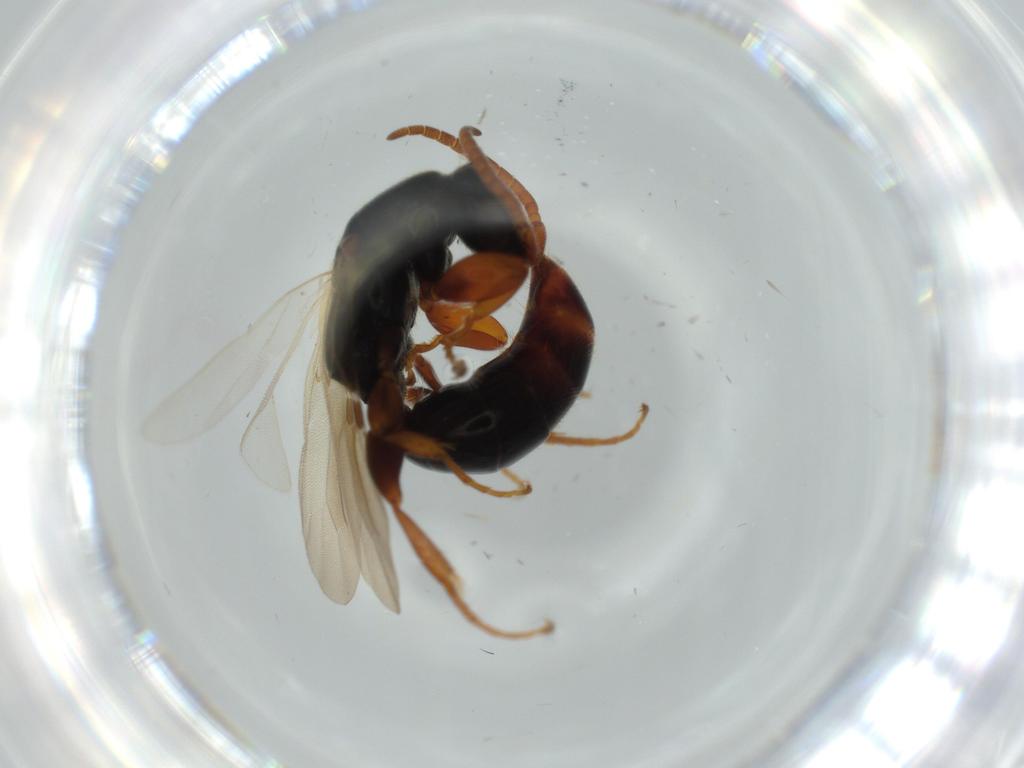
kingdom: Animalia
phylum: Arthropoda
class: Insecta
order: Hymenoptera
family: Bethylidae
